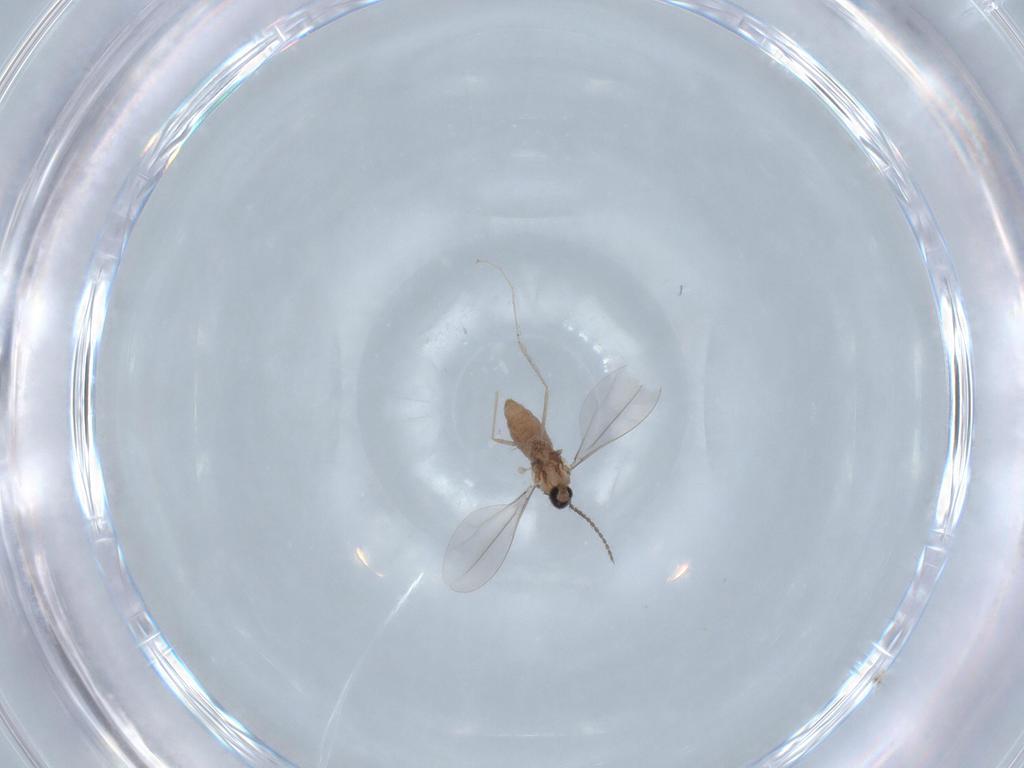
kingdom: Animalia
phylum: Arthropoda
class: Insecta
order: Diptera
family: Cecidomyiidae
